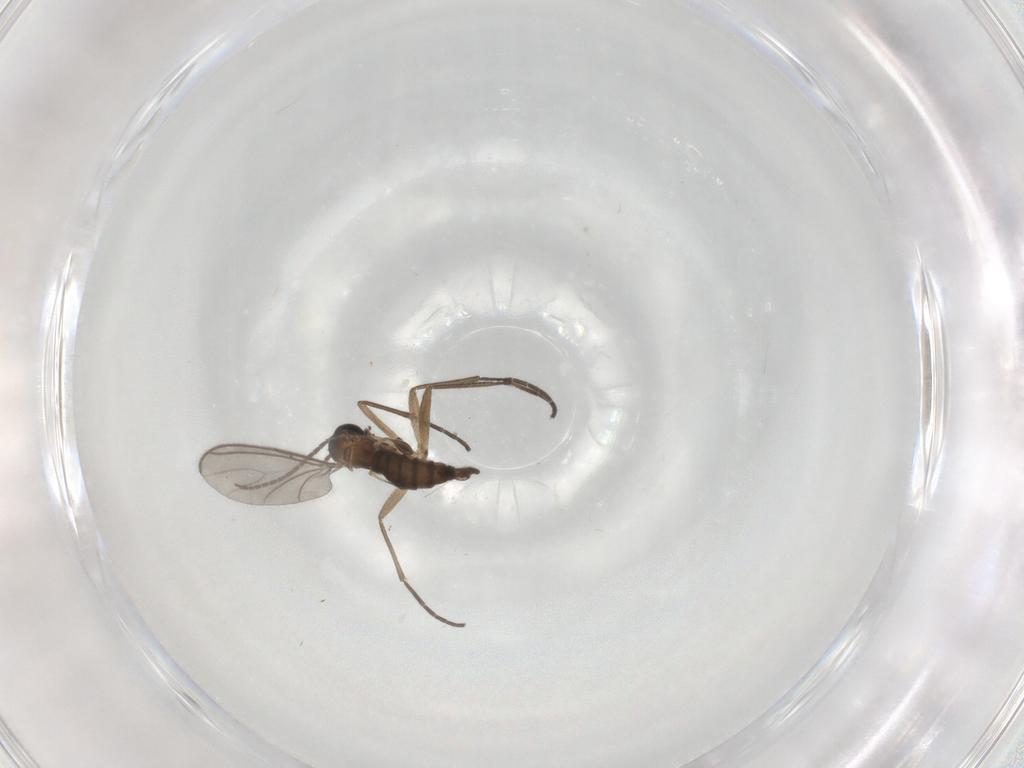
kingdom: Animalia
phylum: Arthropoda
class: Insecta
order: Diptera
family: Sciaridae
